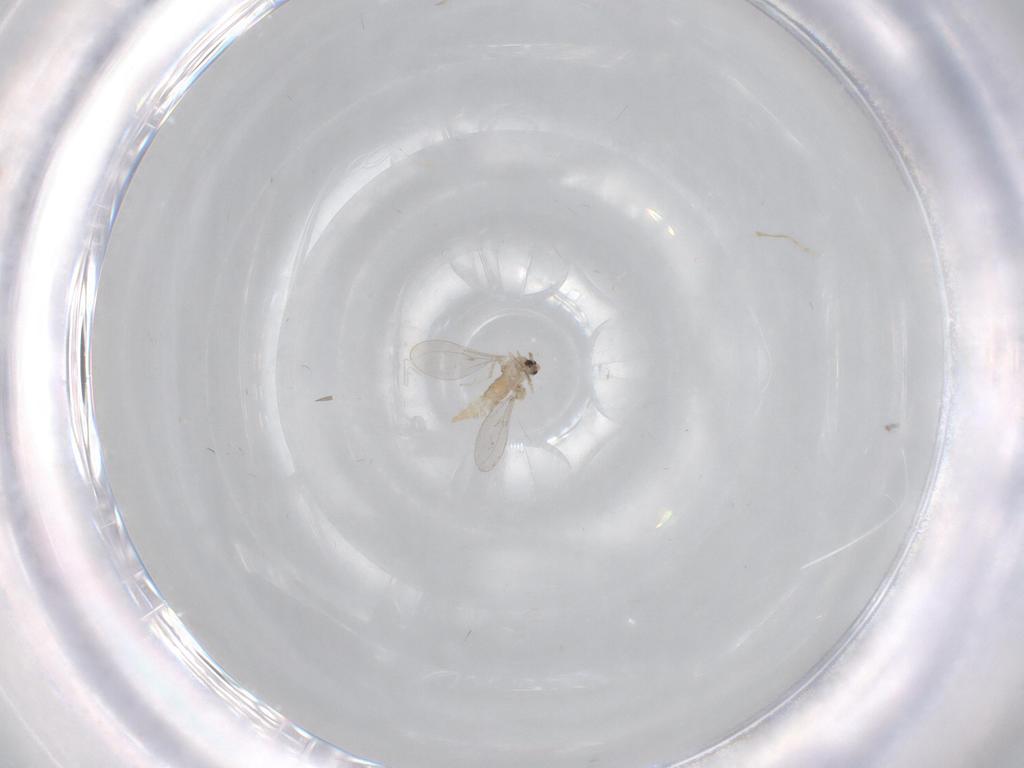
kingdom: Animalia
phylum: Arthropoda
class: Insecta
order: Diptera
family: Cecidomyiidae
